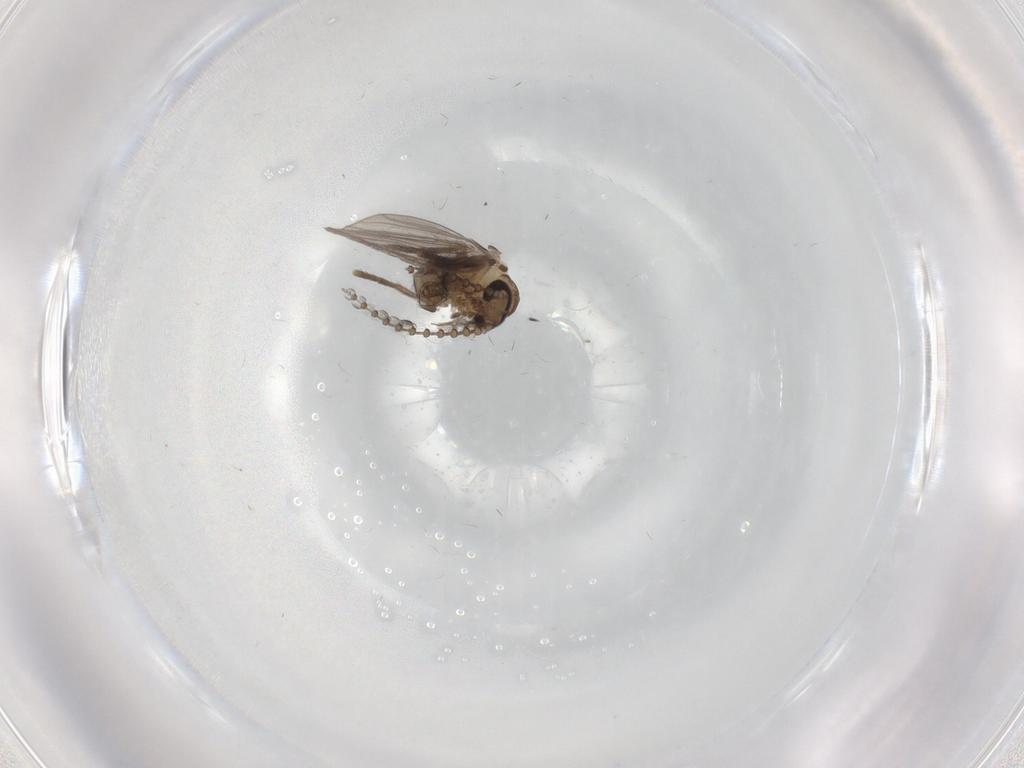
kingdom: Animalia
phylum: Arthropoda
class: Insecta
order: Diptera
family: Psychodidae
